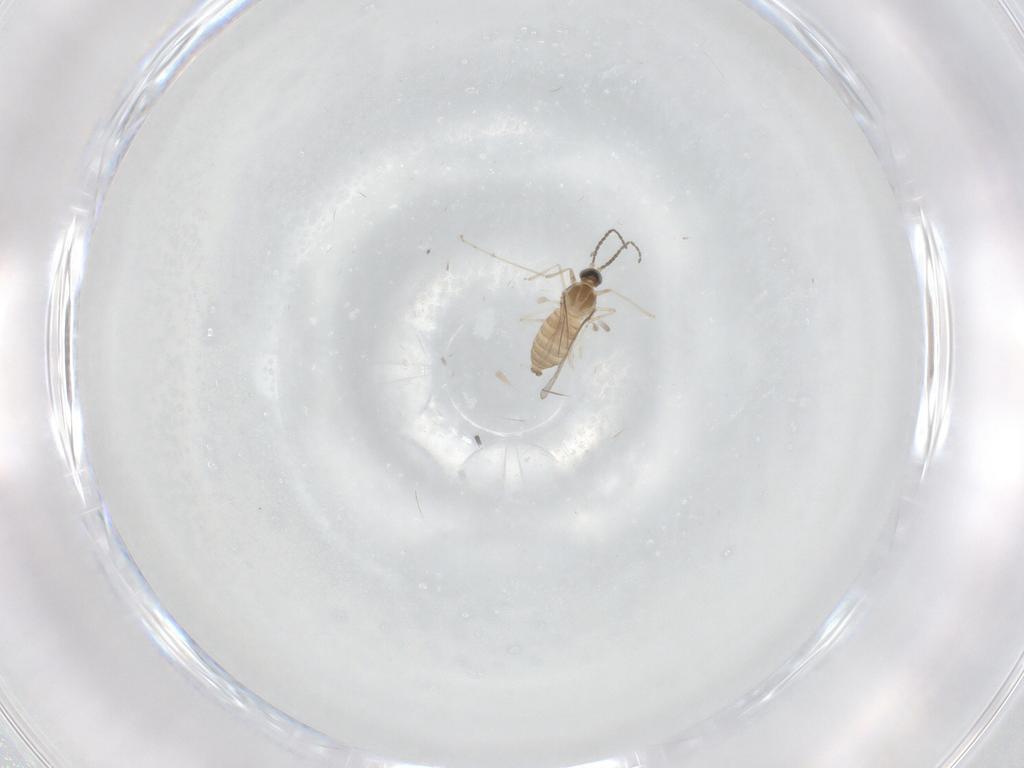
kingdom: Animalia
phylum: Arthropoda
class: Insecta
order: Diptera
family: Cecidomyiidae
